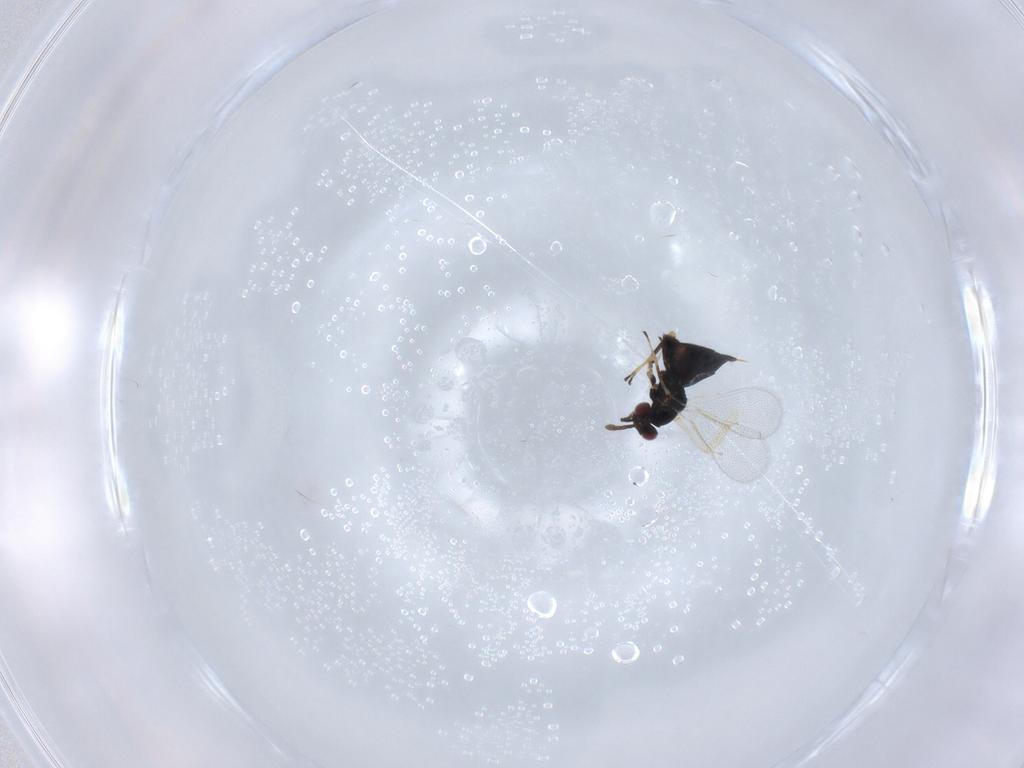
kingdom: Animalia
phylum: Arthropoda
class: Insecta
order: Hymenoptera
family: Eulophidae
